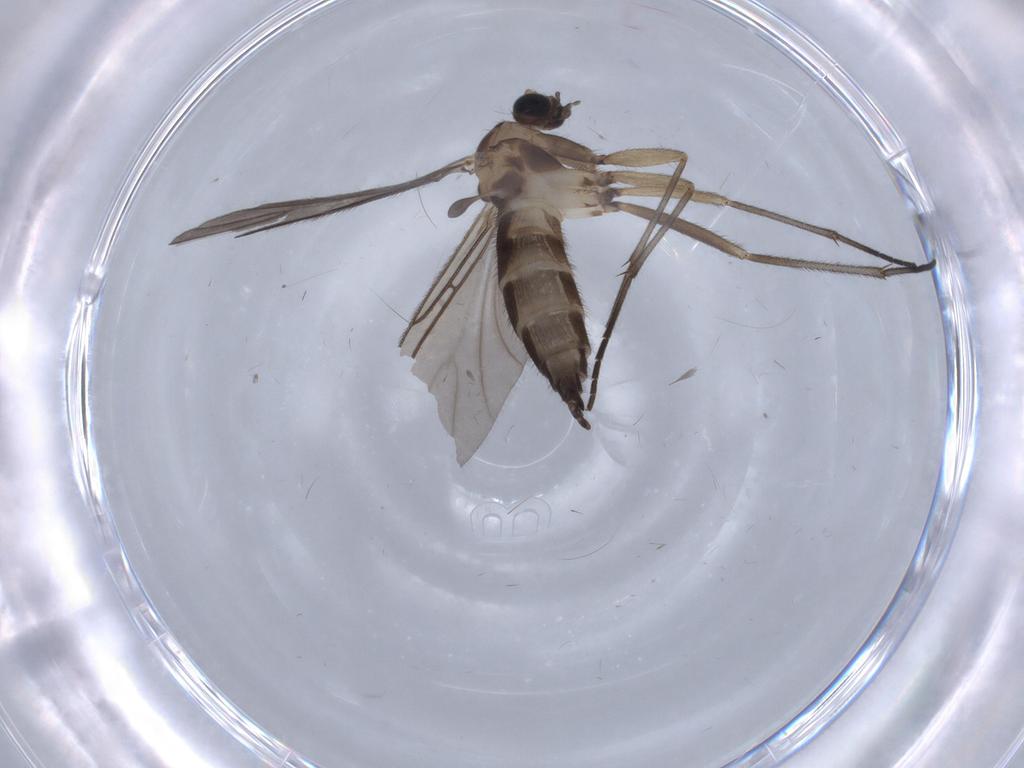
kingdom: Animalia
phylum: Arthropoda
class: Insecta
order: Diptera
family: Sciaridae
